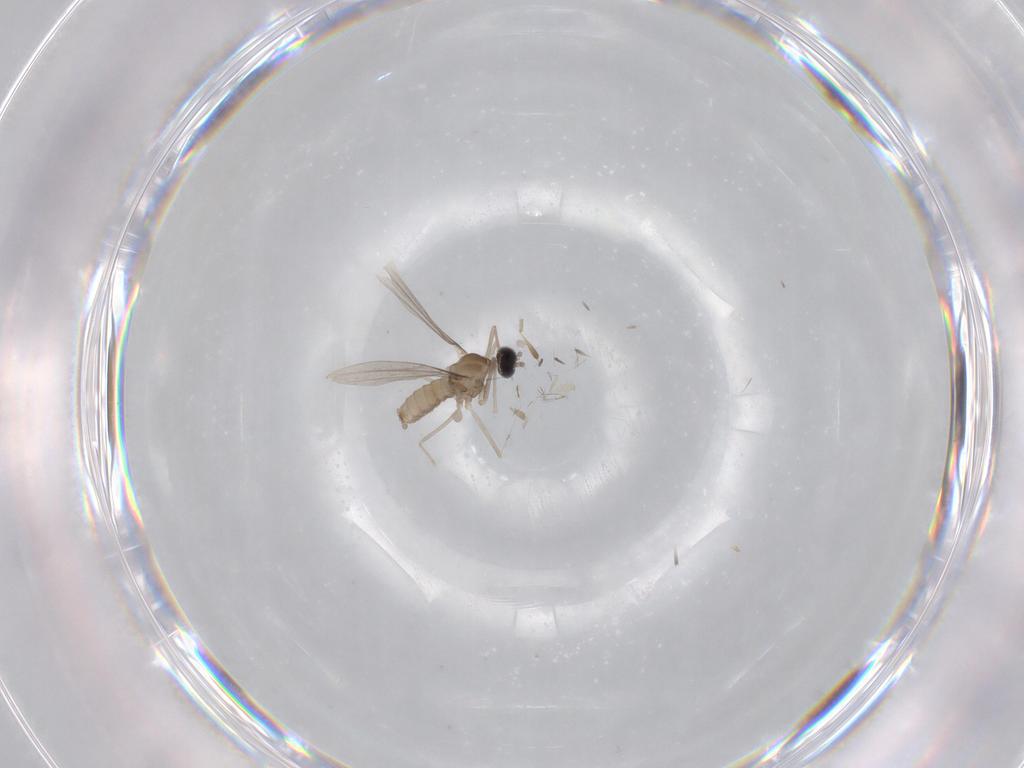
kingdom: Animalia
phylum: Arthropoda
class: Insecta
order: Diptera
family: Cecidomyiidae
